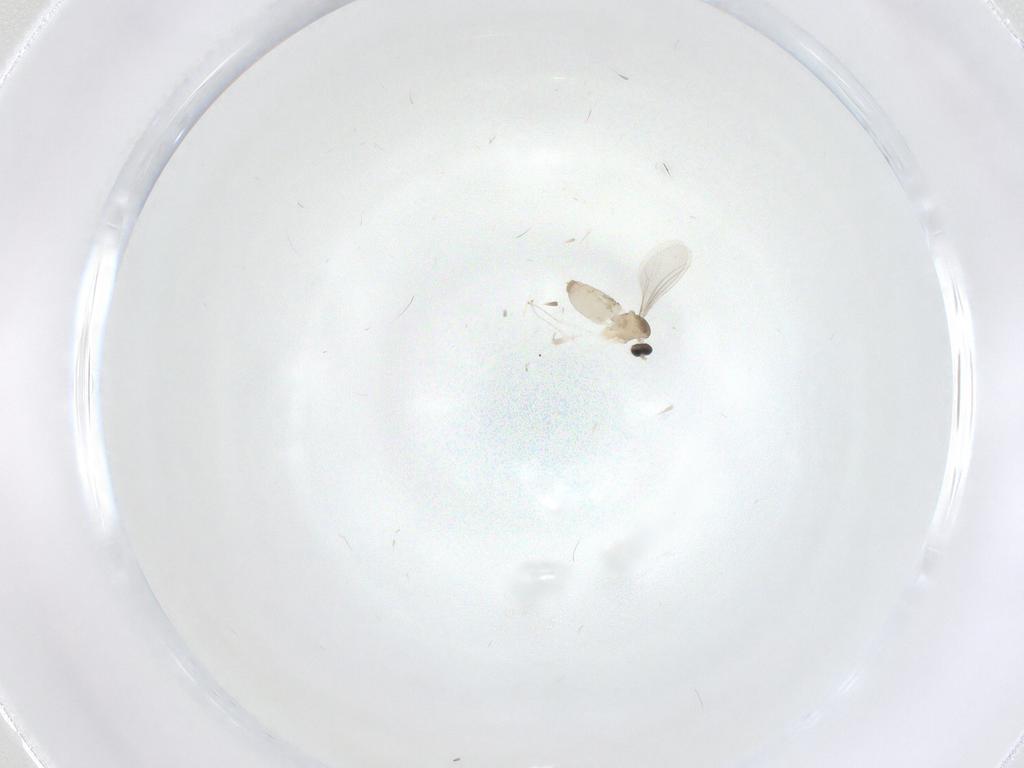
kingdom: Animalia
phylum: Arthropoda
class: Insecta
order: Diptera
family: Cecidomyiidae
